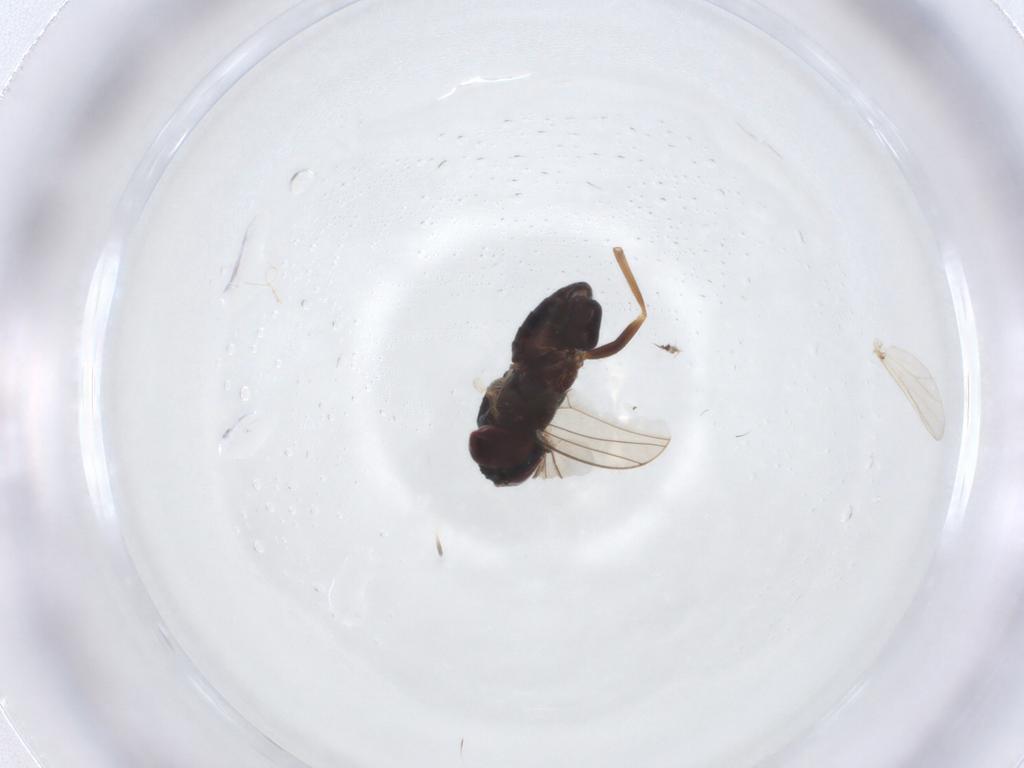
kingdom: Animalia
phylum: Arthropoda
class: Insecta
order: Diptera
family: Dolichopodidae
